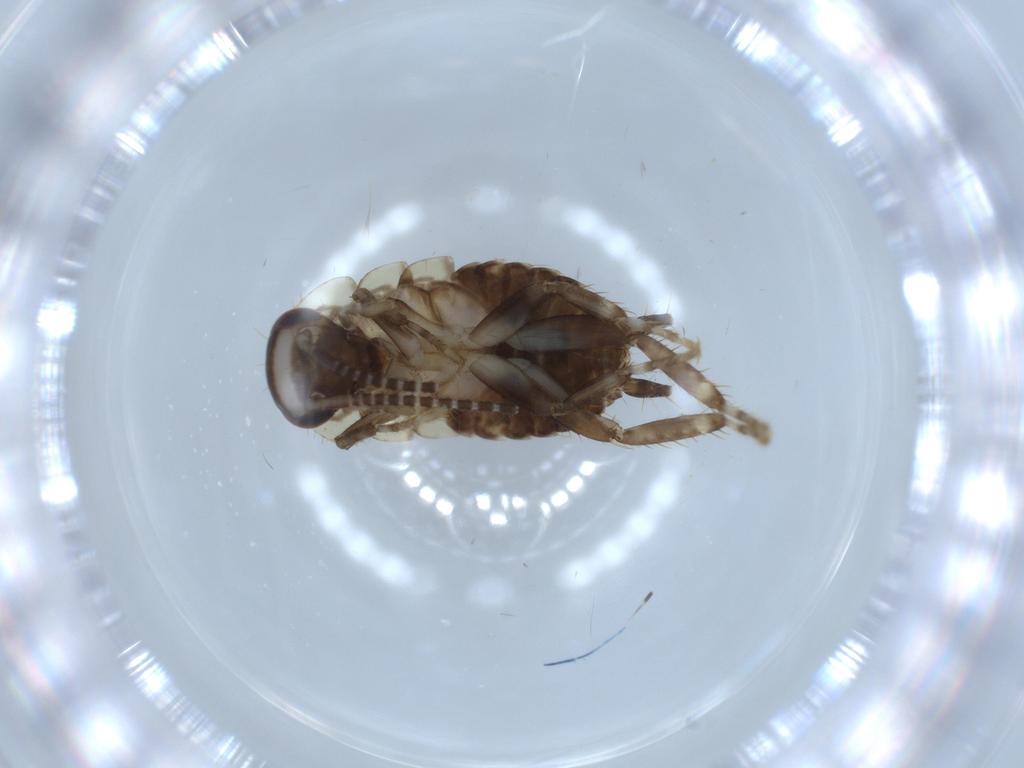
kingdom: Animalia
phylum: Arthropoda
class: Insecta
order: Blattodea
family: Ectobiidae
